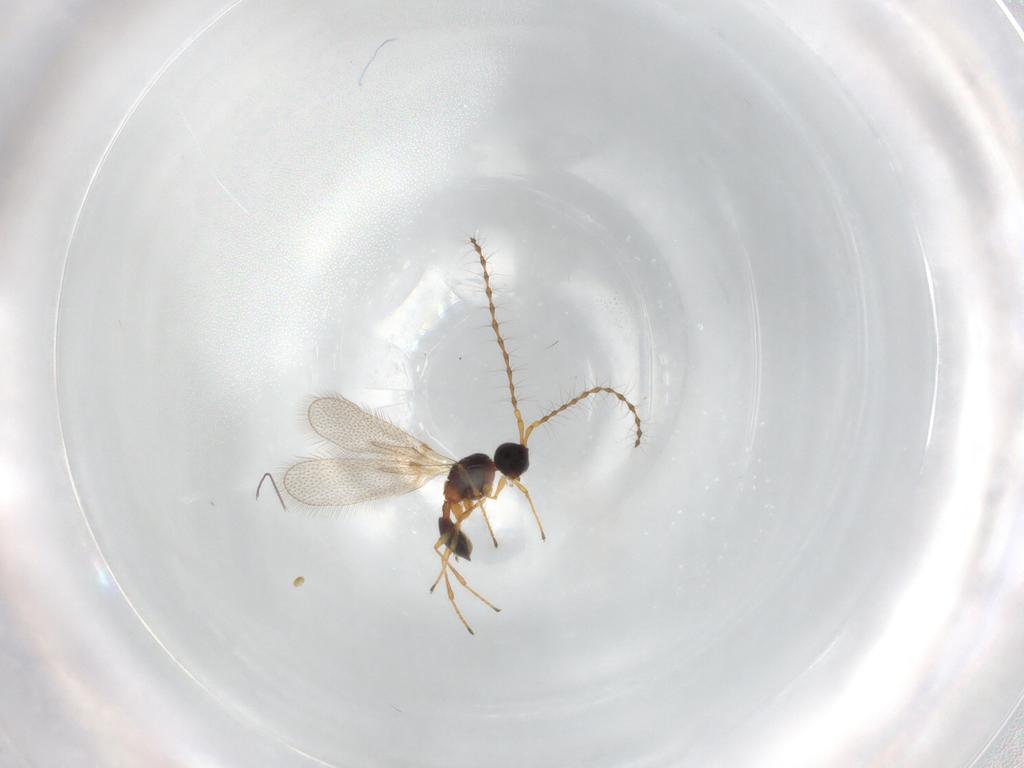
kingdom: Animalia
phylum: Arthropoda
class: Insecta
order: Hymenoptera
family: Diapriidae
